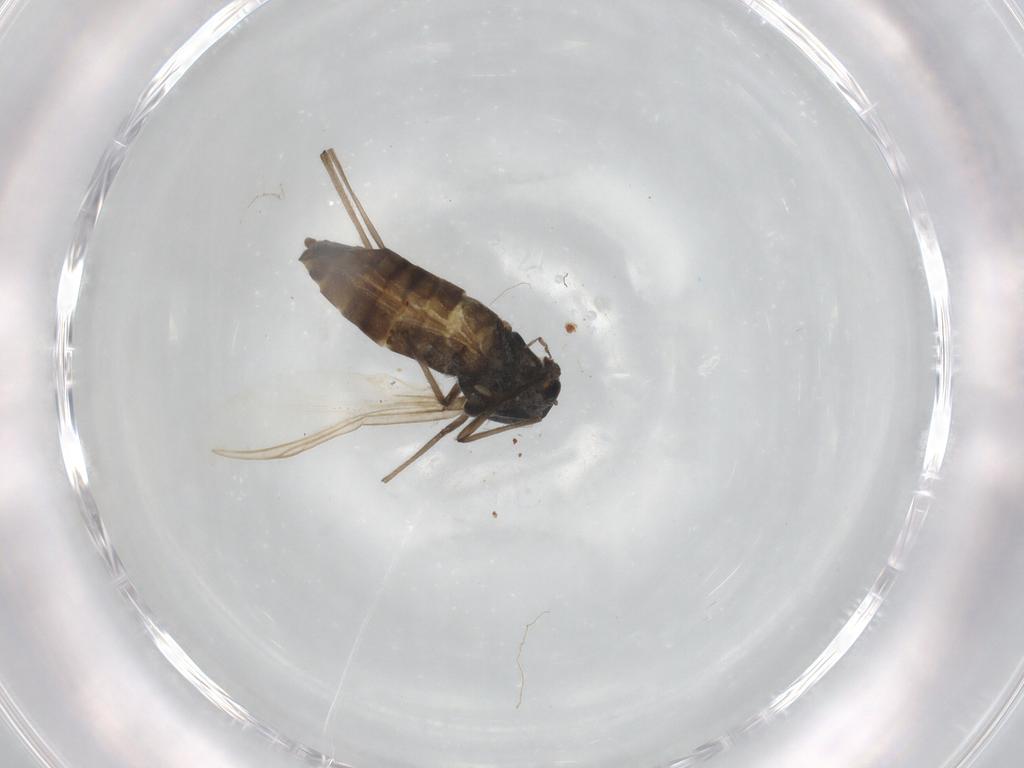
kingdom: Animalia
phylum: Arthropoda
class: Insecta
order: Diptera
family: Chironomidae
